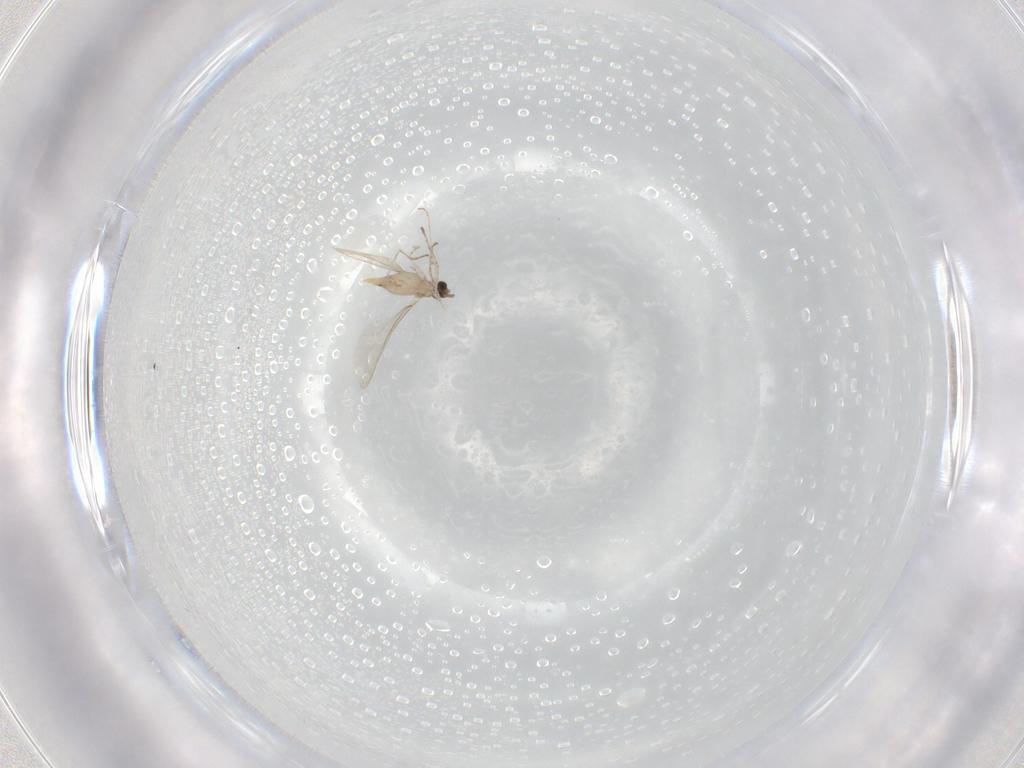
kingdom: Animalia
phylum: Arthropoda
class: Insecta
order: Diptera
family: Cecidomyiidae
